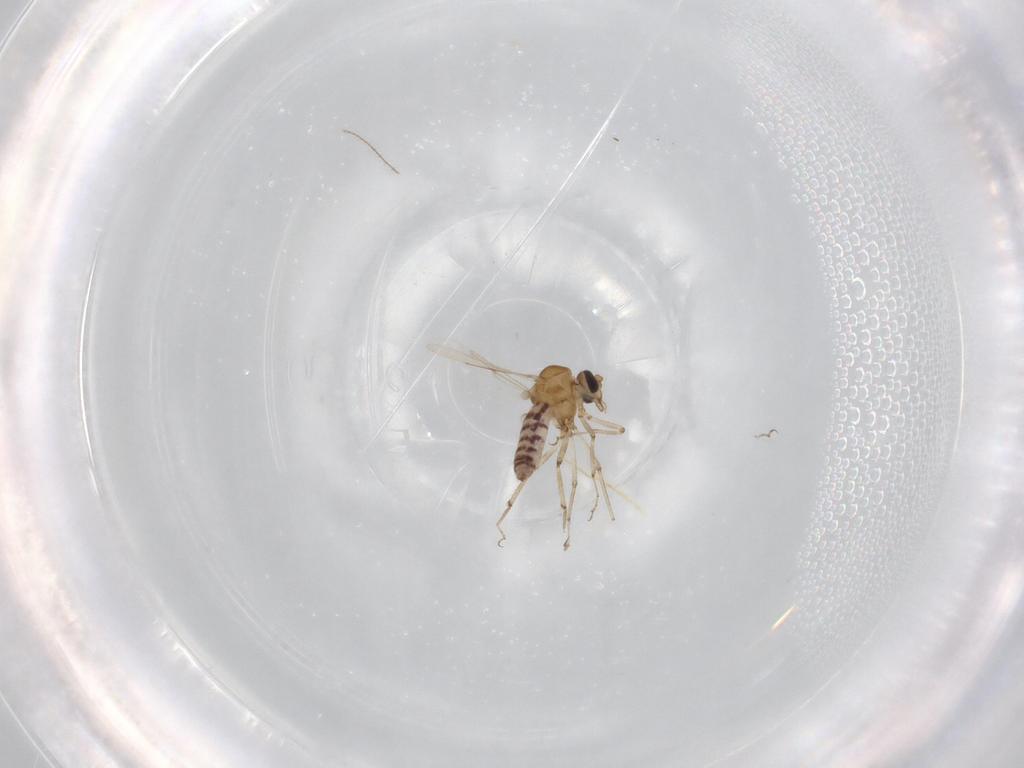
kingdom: Animalia
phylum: Arthropoda
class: Insecta
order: Diptera
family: Ceratopogonidae
